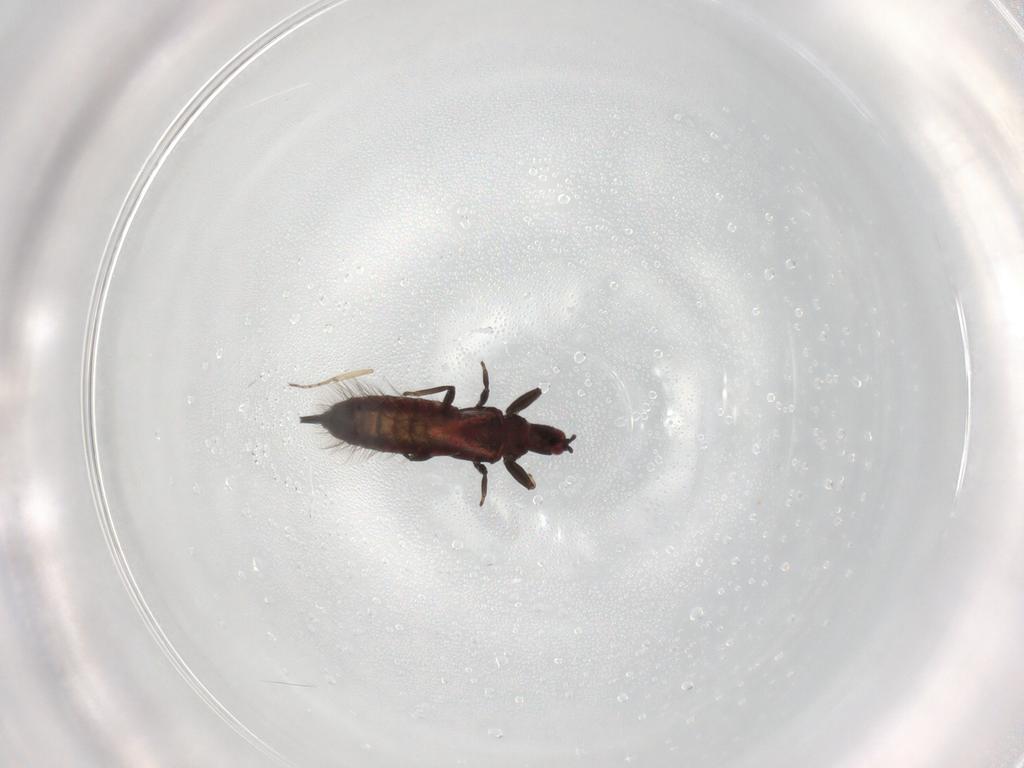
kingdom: Animalia
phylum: Arthropoda
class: Insecta
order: Thysanoptera
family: Phlaeothripidae
